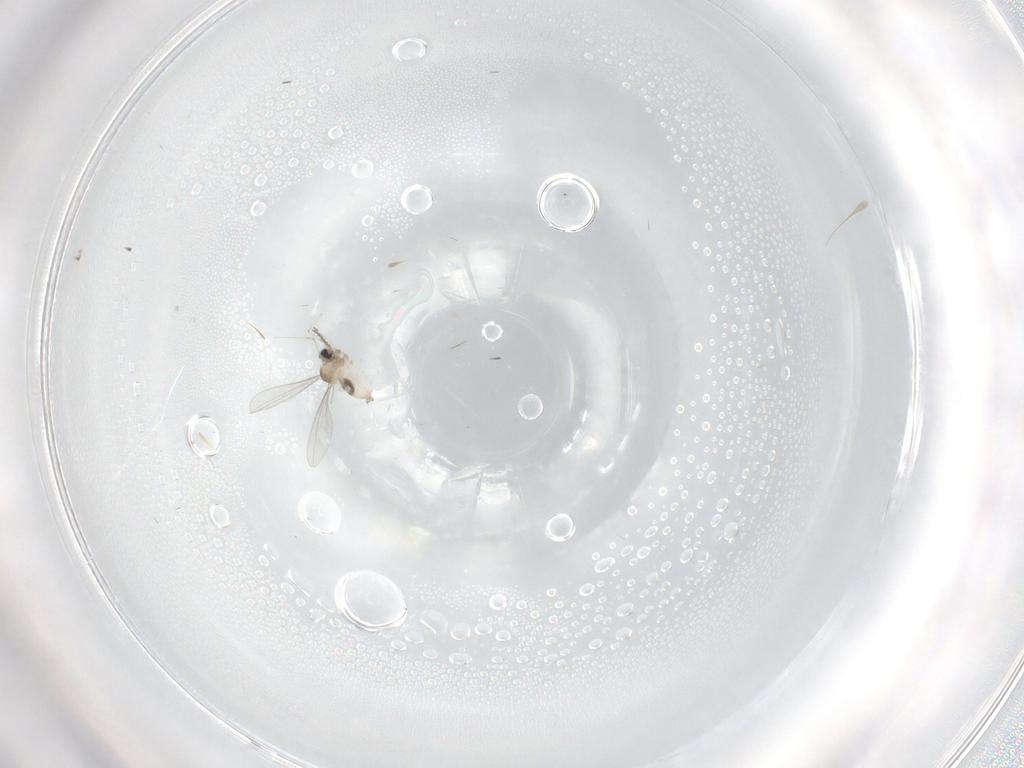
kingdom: Animalia
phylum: Arthropoda
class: Insecta
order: Diptera
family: Cecidomyiidae
